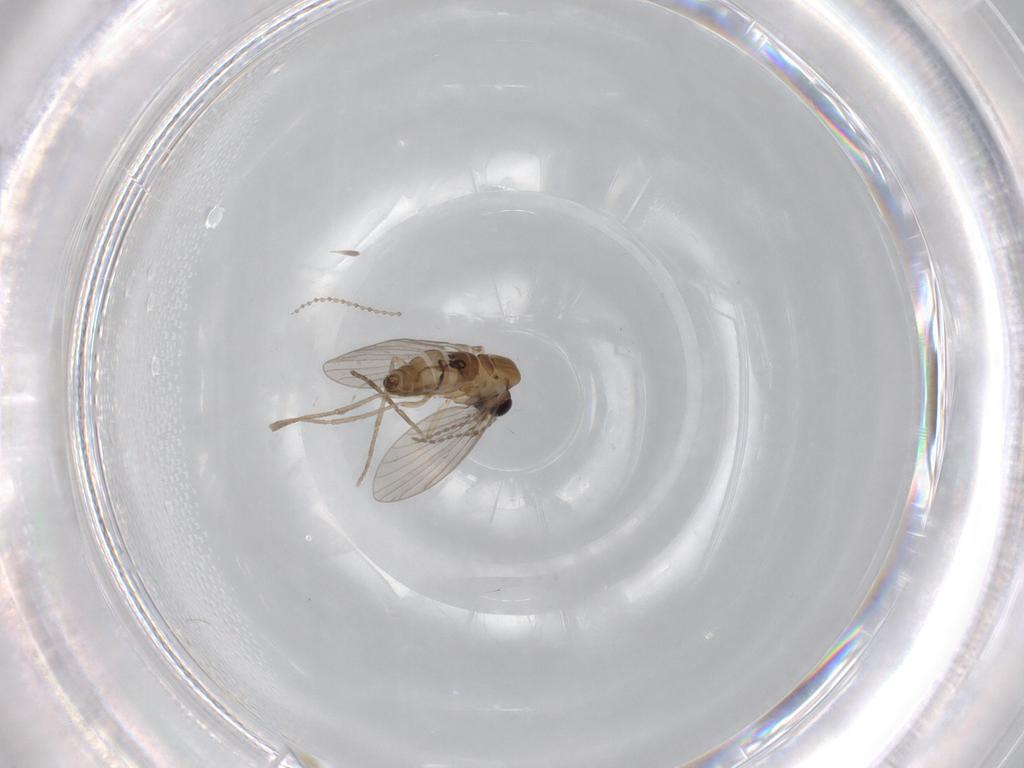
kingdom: Animalia
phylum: Arthropoda
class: Insecta
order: Diptera
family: Cecidomyiidae
